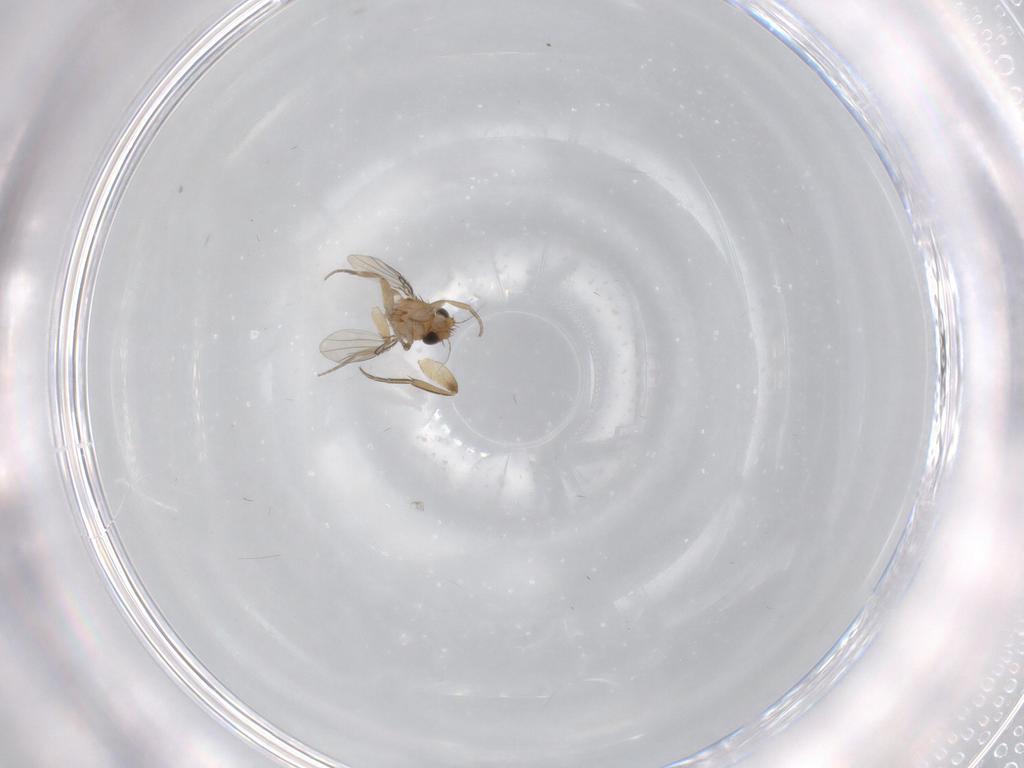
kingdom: Animalia
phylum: Arthropoda
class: Insecta
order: Diptera
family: Phoridae
